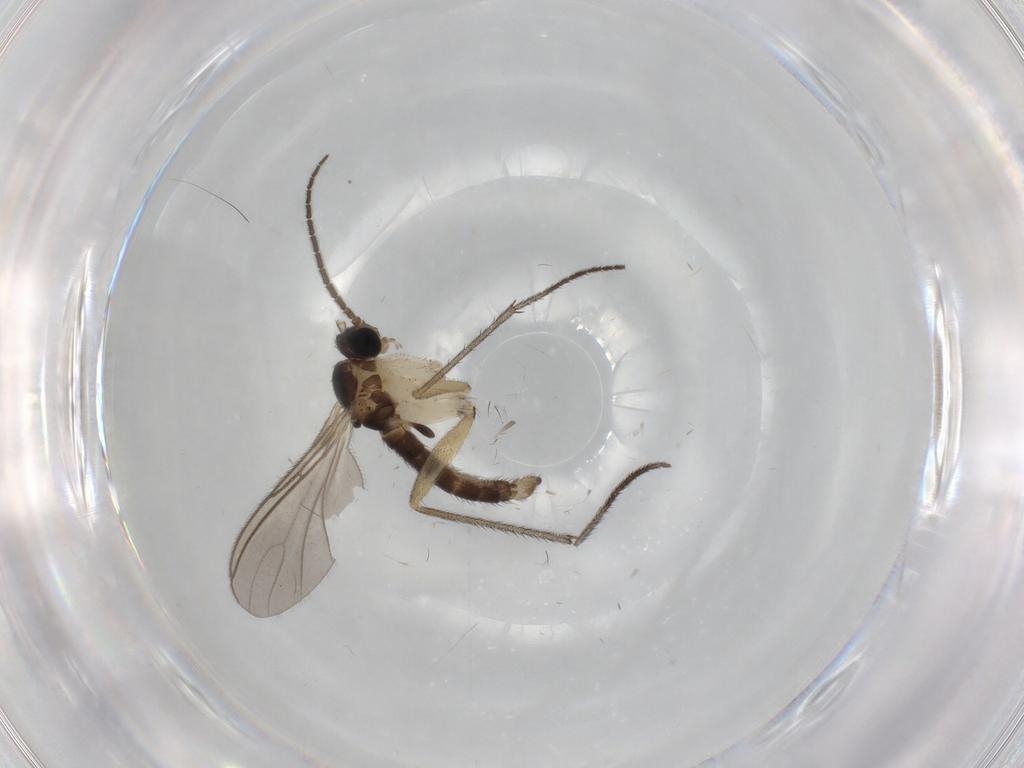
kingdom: Animalia
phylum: Arthropoda
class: Insecta
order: Diptera
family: Sciaridae
